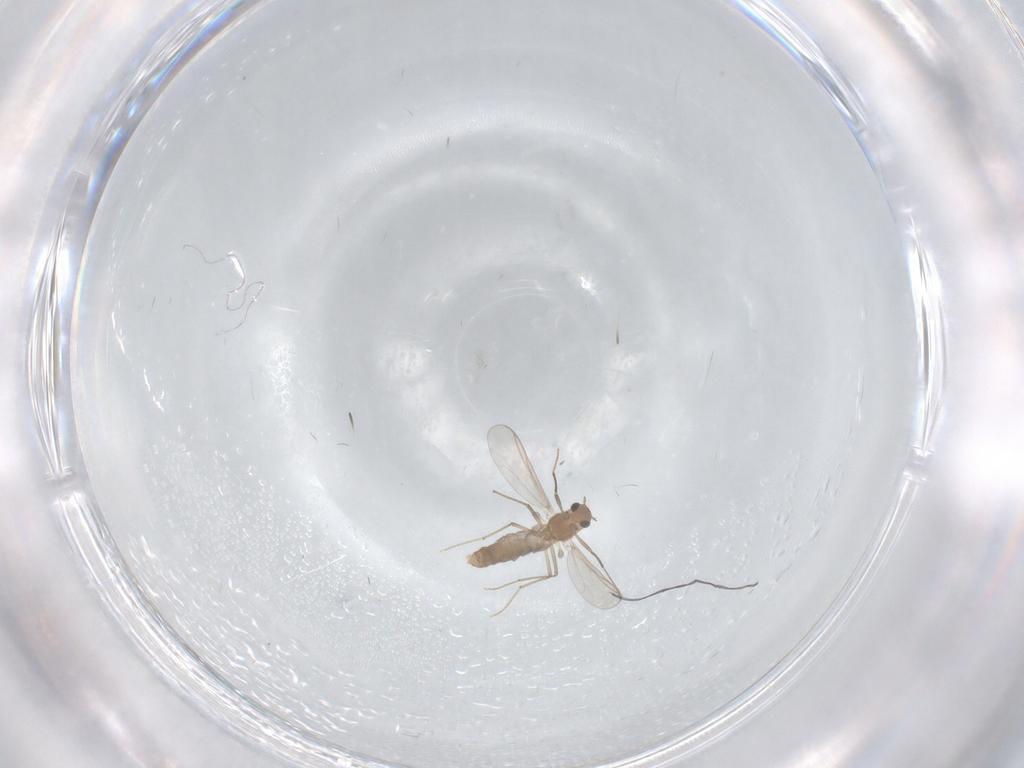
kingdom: Animalia
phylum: Arthropoda
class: Insecta
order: Diptera
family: Chironomidae
